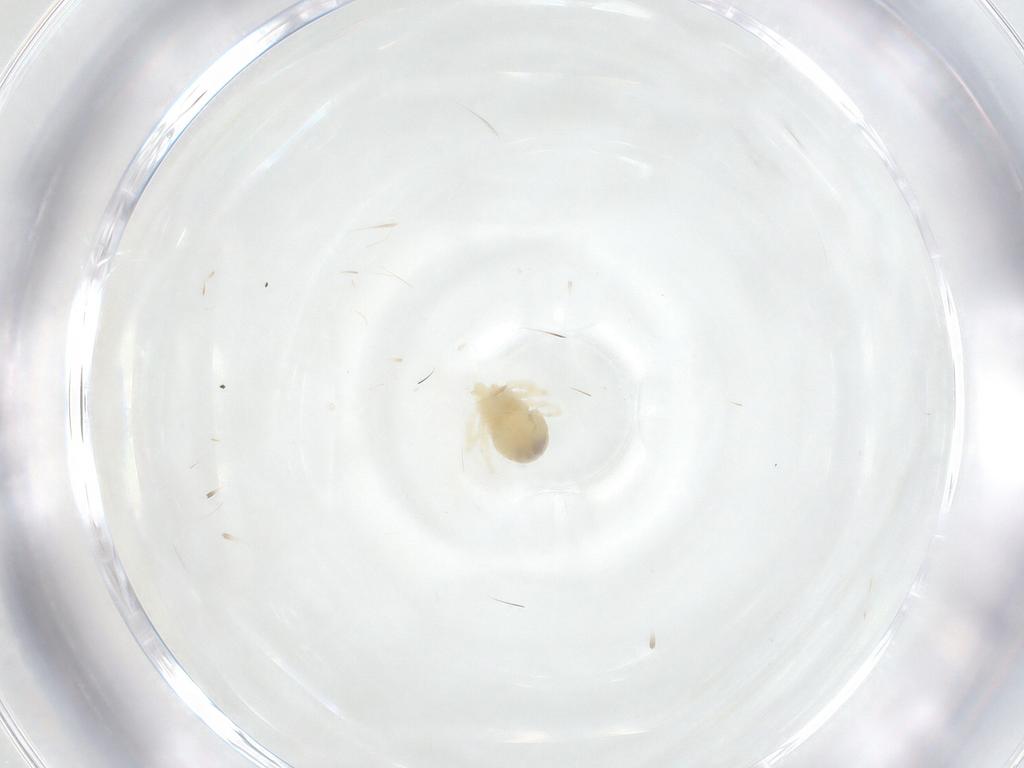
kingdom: Animalia
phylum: Arthropoda
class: Arachnida
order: Trombidiformes
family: Anystidae
